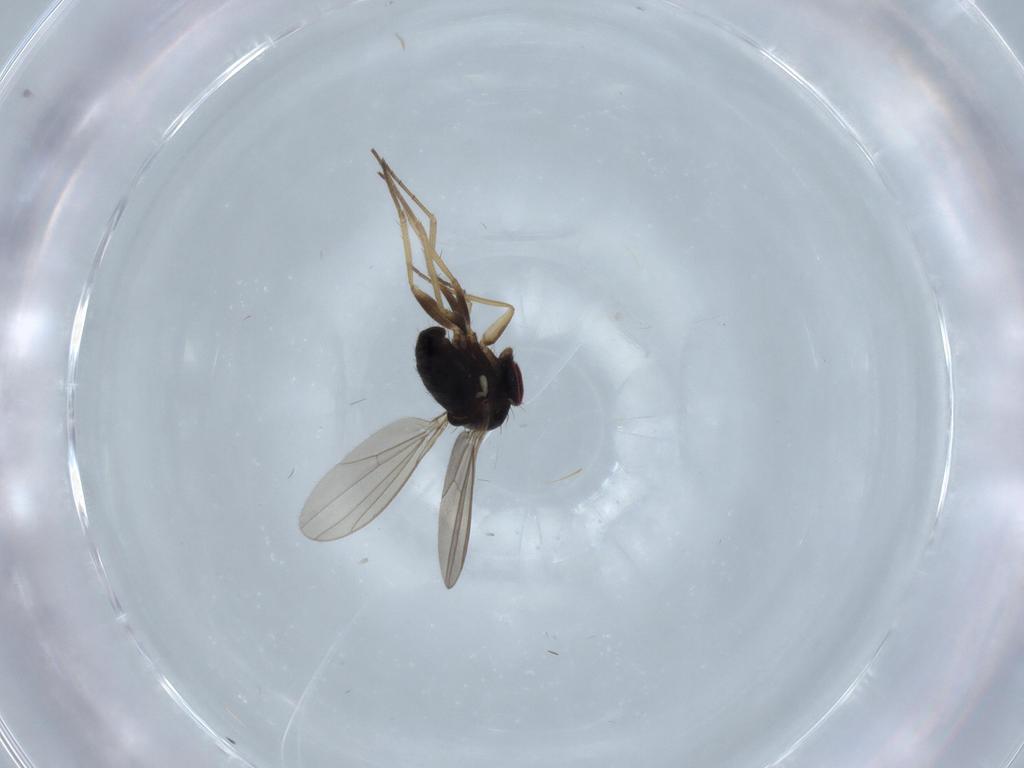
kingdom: Animalia
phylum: Arthropoda
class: Insecta
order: Diptera
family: Dolichopodidae
